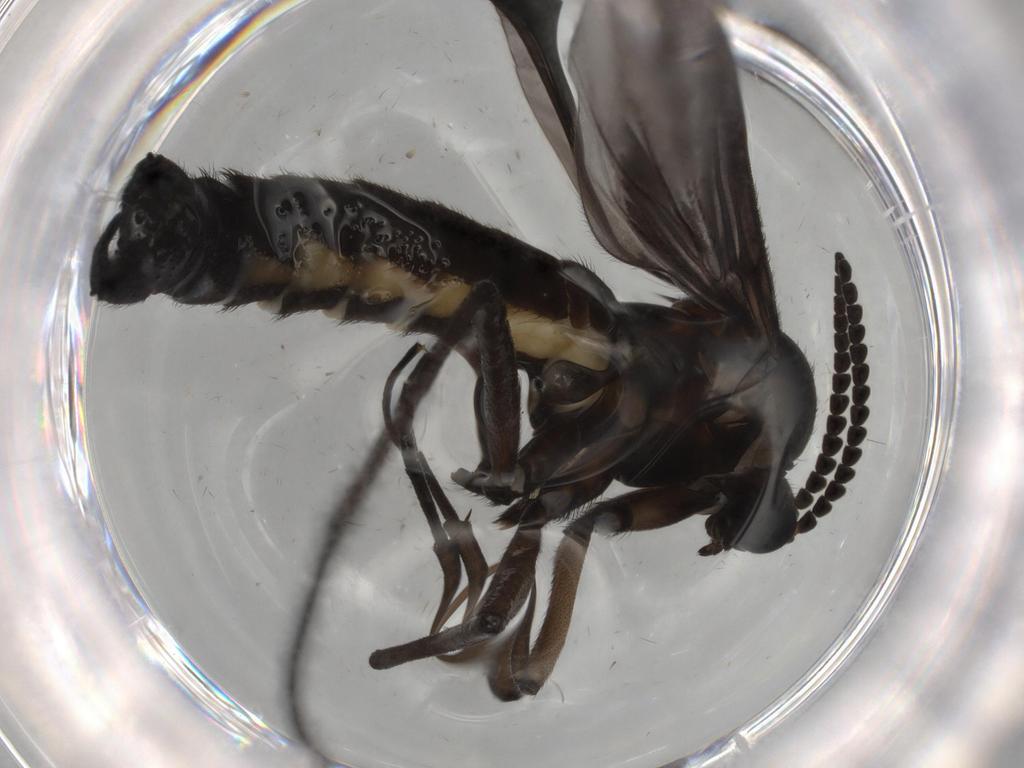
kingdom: Animalia
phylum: Arthropoda
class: Insecta
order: Diptera
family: Sciaridae
